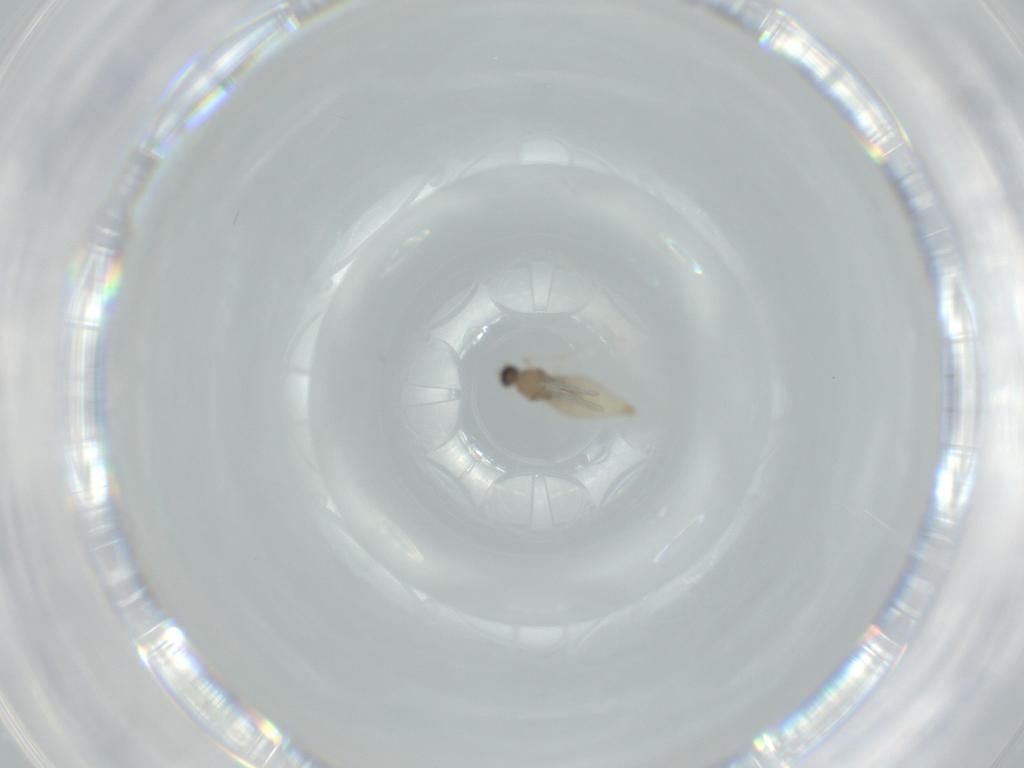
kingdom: Animalia
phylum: Arthropoda
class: Insecta
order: Diptera
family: Cecidomyiidae
